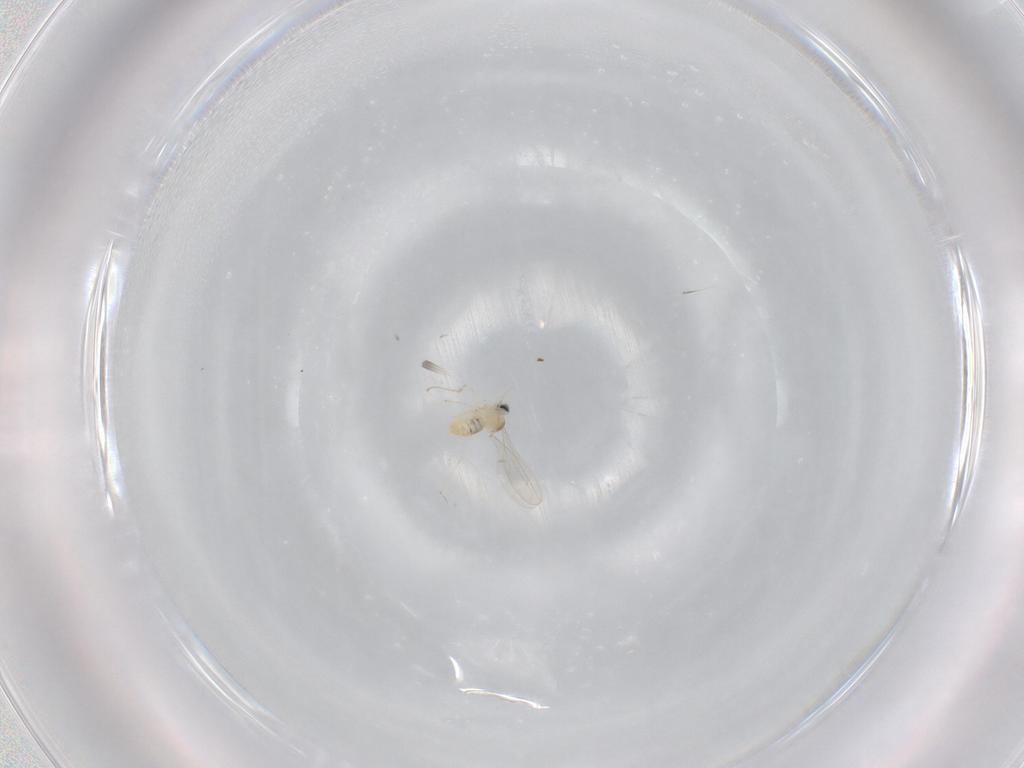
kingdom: Animalia
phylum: Arthropoda
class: Insecta
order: Diptera
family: Cecidomyiidae
